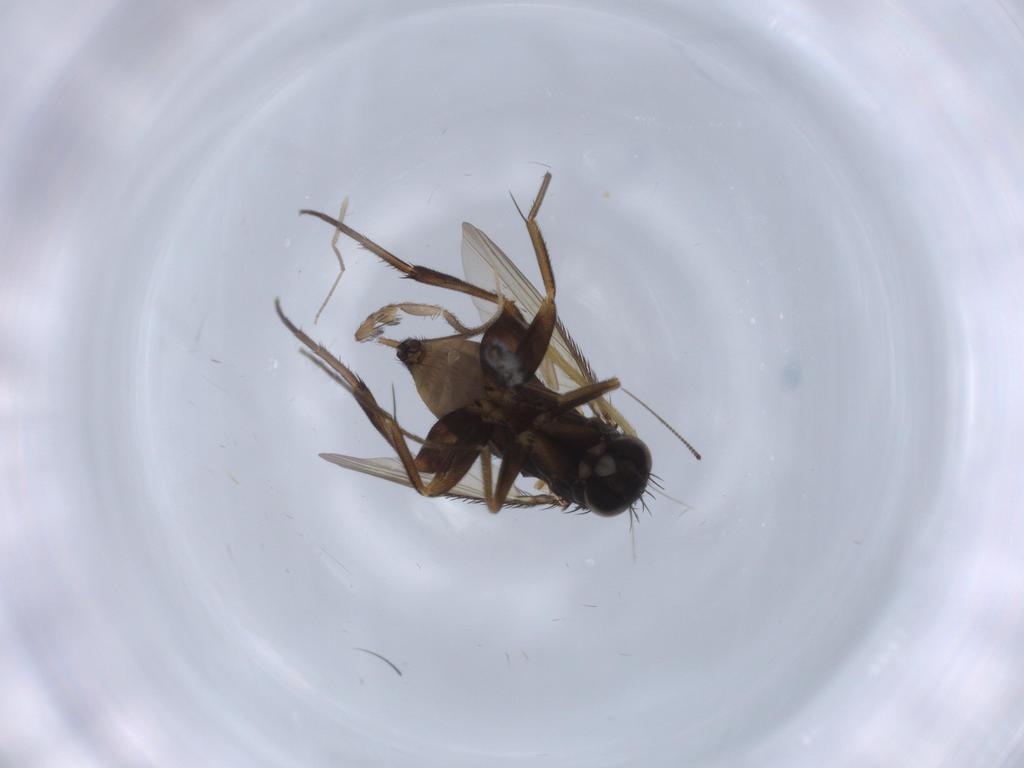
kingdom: Animalia
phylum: Arthropoda
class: Insecta
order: Diptera
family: Phoridae
